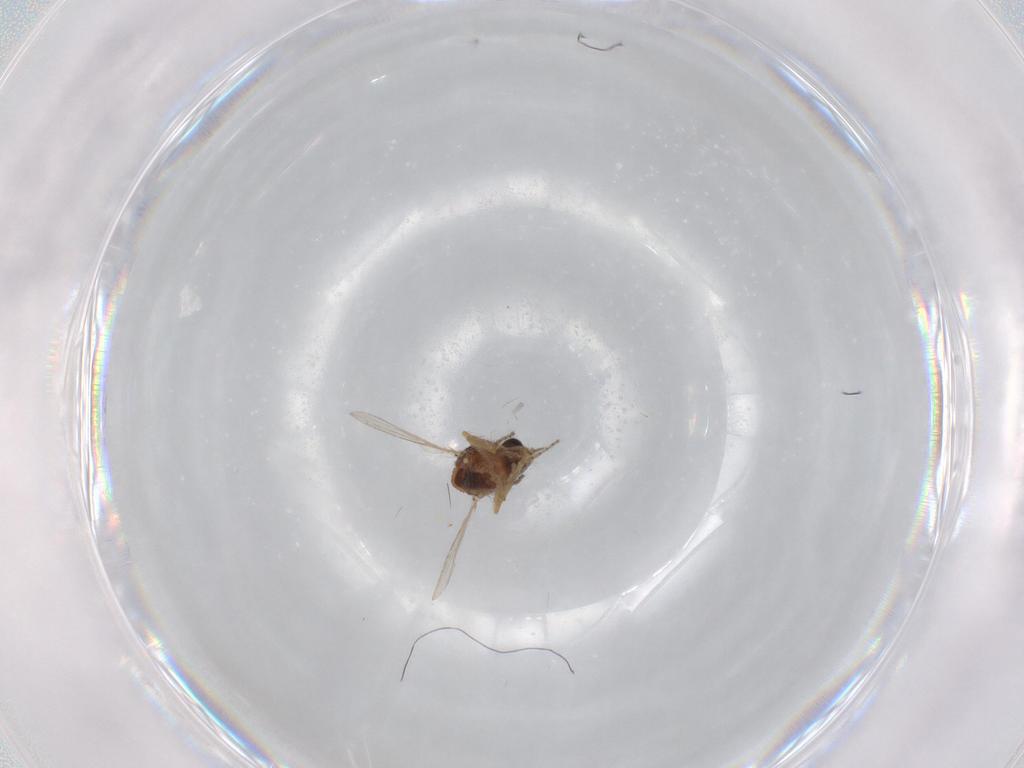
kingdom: Animalia
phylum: Arthropoda
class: Insecta
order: Diptera
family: Ceratopogonidae
